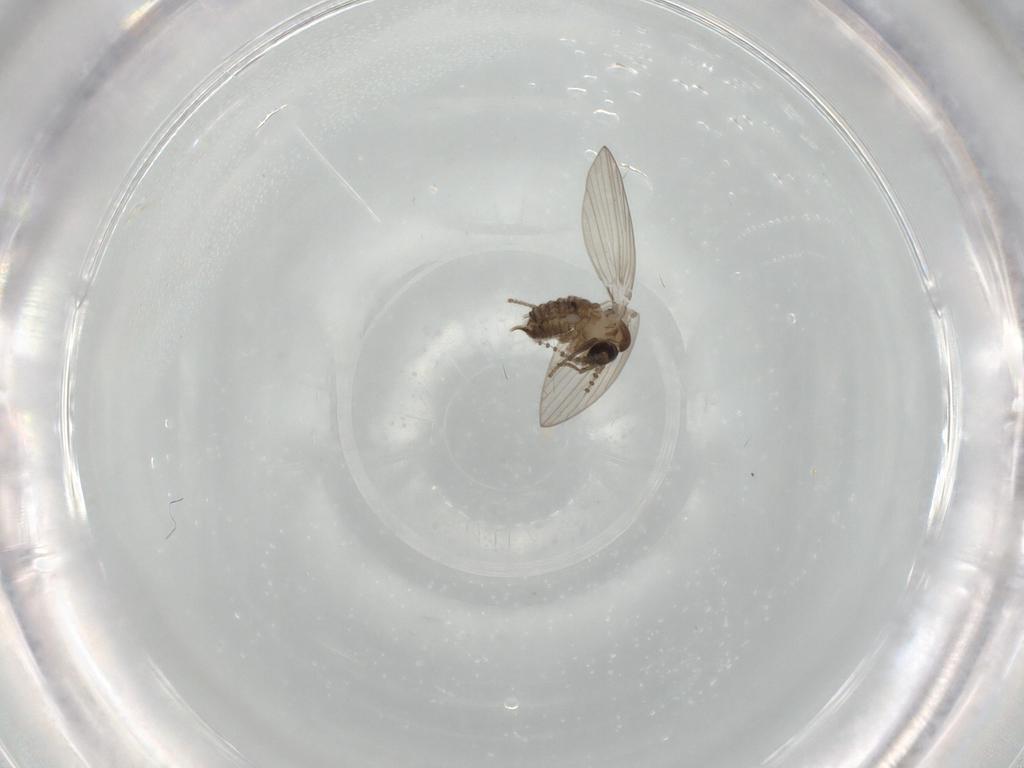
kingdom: Animalia
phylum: Arthropoda
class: Insecta
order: Diptera
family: Psychodidae
